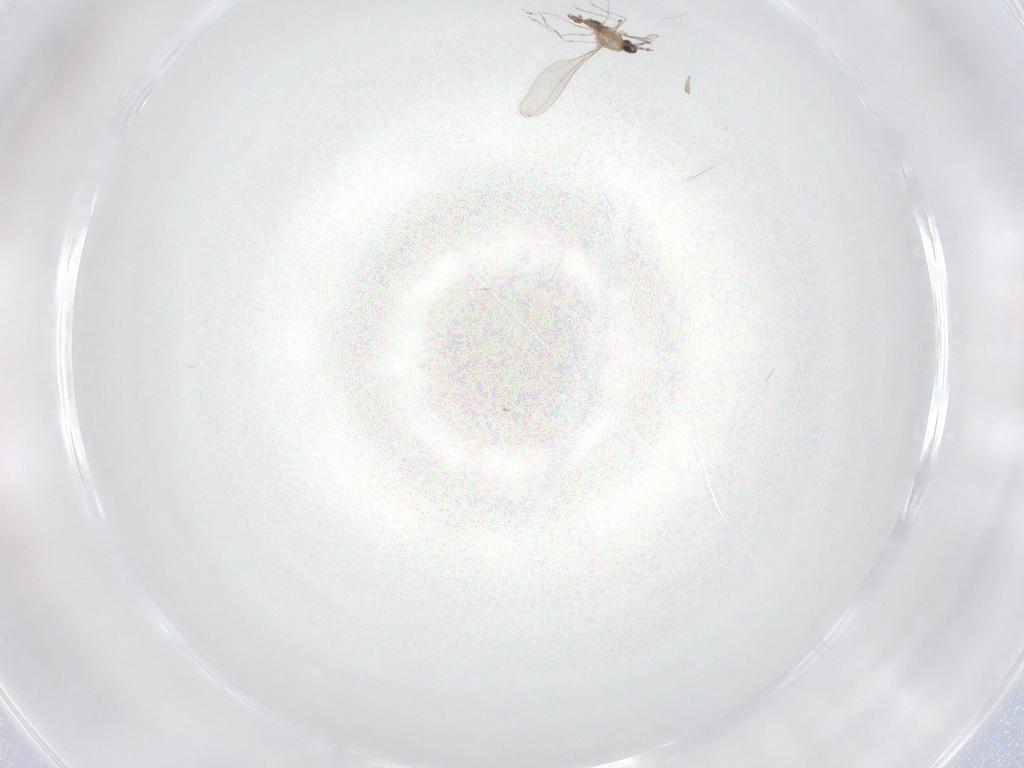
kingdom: Animalia
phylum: Arthropoda
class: Insecta
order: Diptera
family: Phoridae
